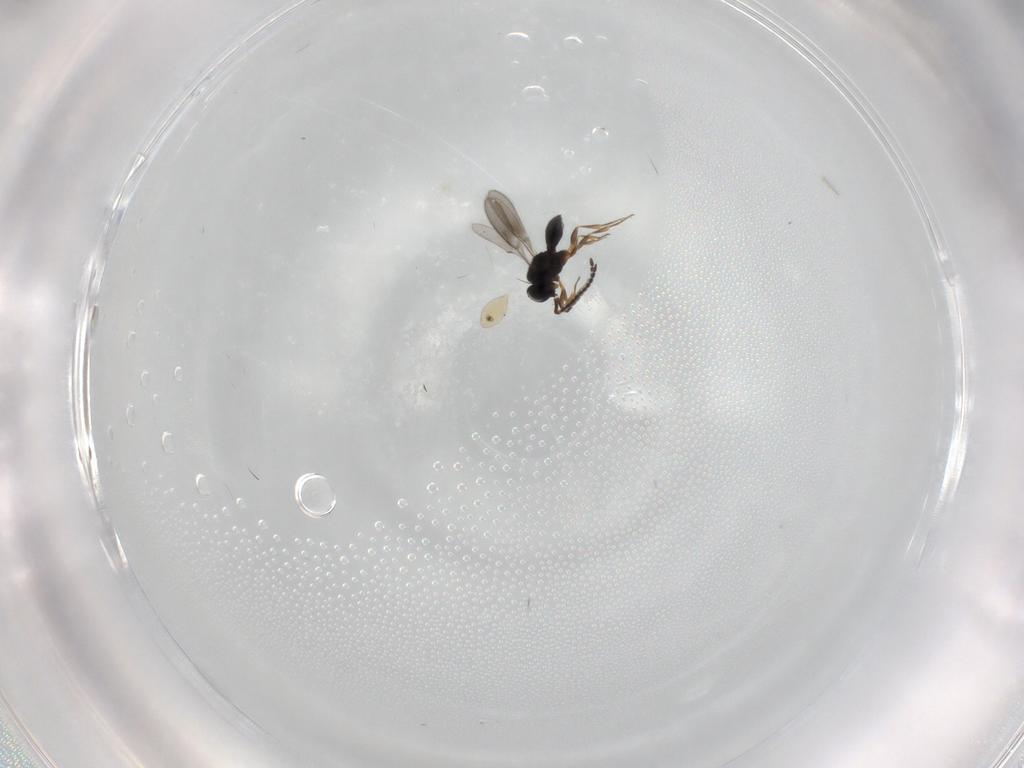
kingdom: Animalia
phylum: Arthropoda
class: Insecta
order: Hymenoptera
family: Scelionidae
